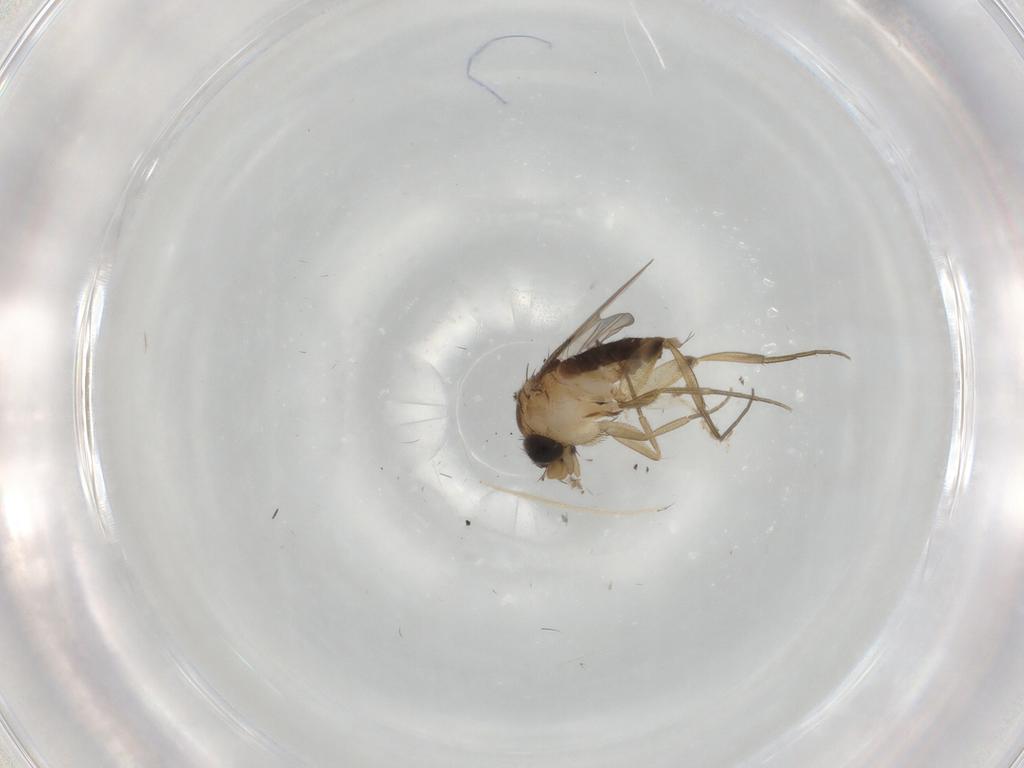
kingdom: Animalia
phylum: Arthropoda
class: Insecta
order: Diptera
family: Phoridae
